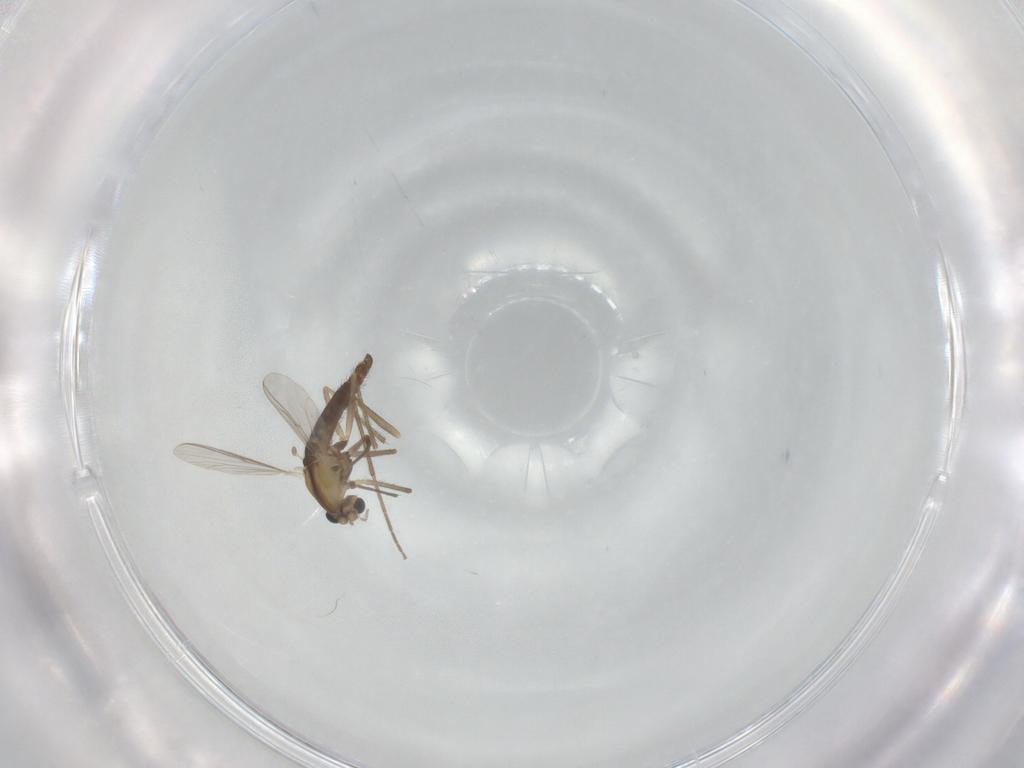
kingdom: Animalia
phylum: Arthropoda
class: Insecta
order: Diptera
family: Chironomidae
